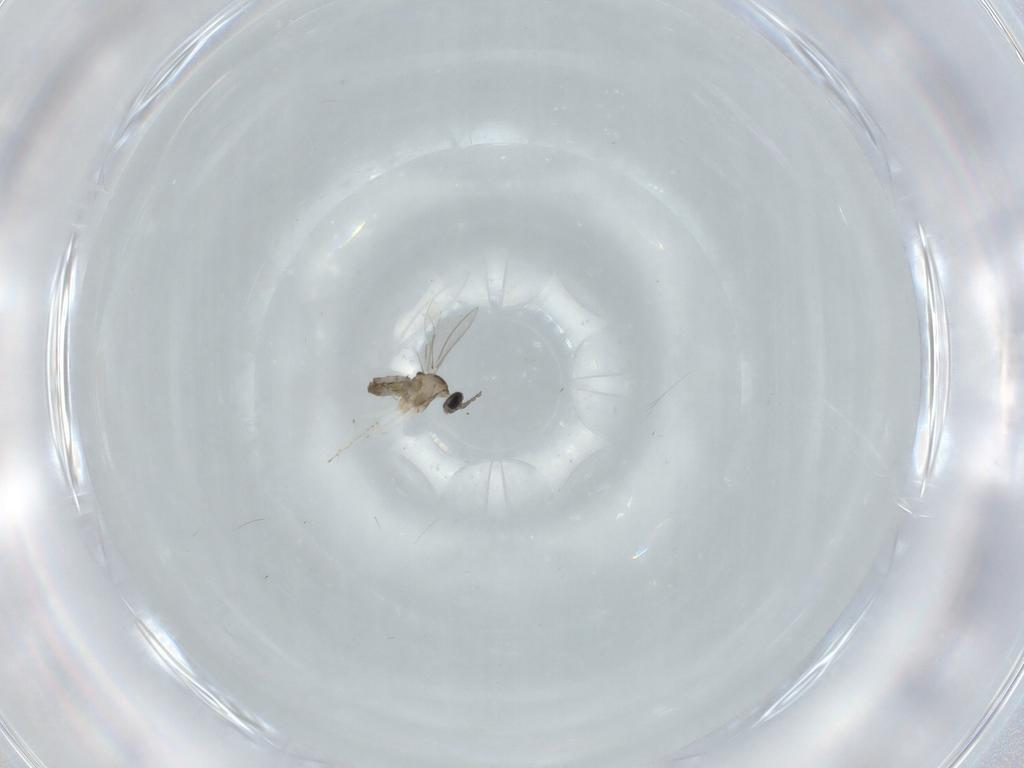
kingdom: Animalia
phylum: Arthropoda
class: Insecta
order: Diptera
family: Cecidomyiidae
